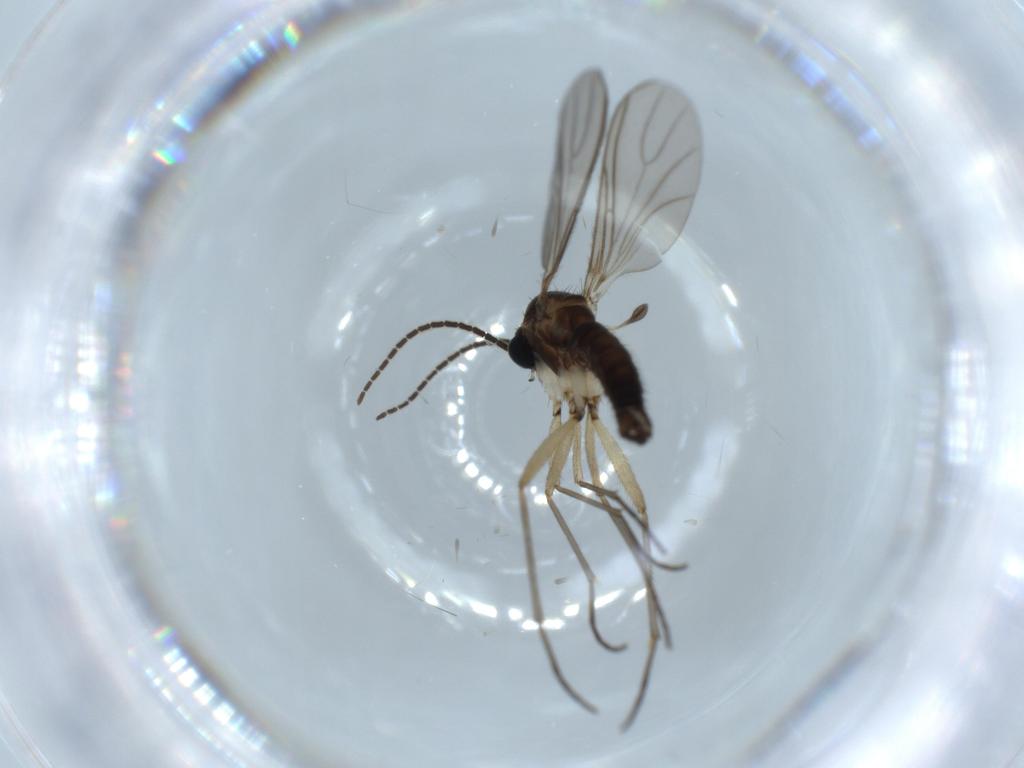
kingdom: Animalia
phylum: Arthropoda
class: Insecta
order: Diptera
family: Sciaridae
